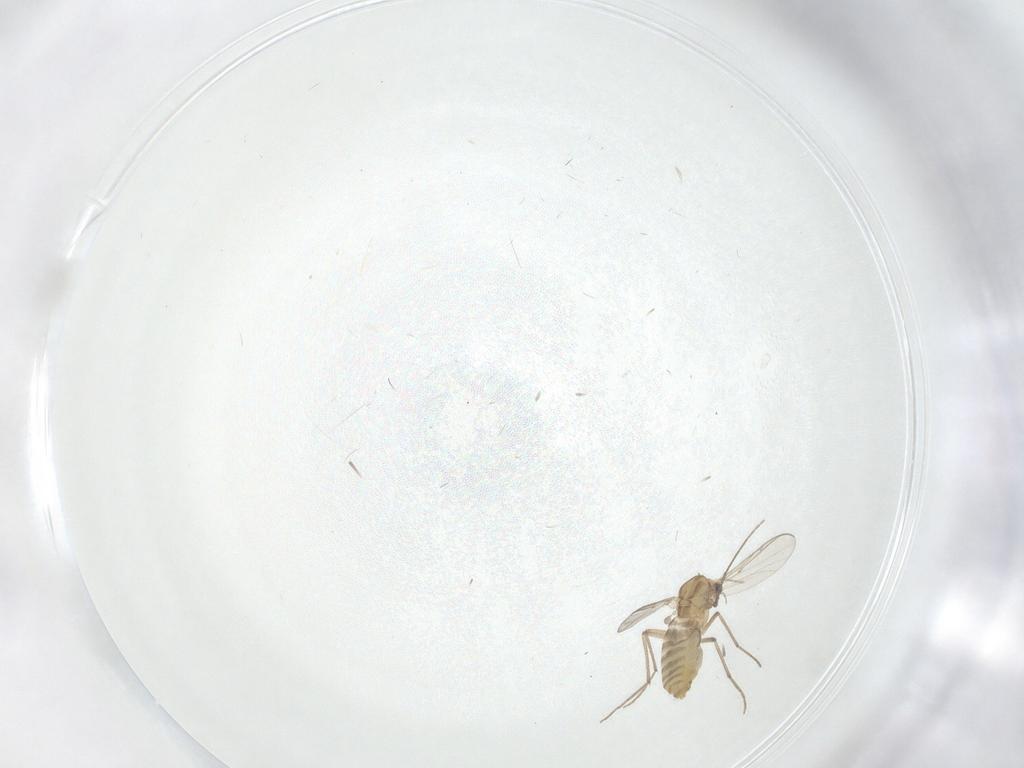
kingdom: Animalia
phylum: Arthropoda
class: Insecta
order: Diptera
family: Chironomidae
